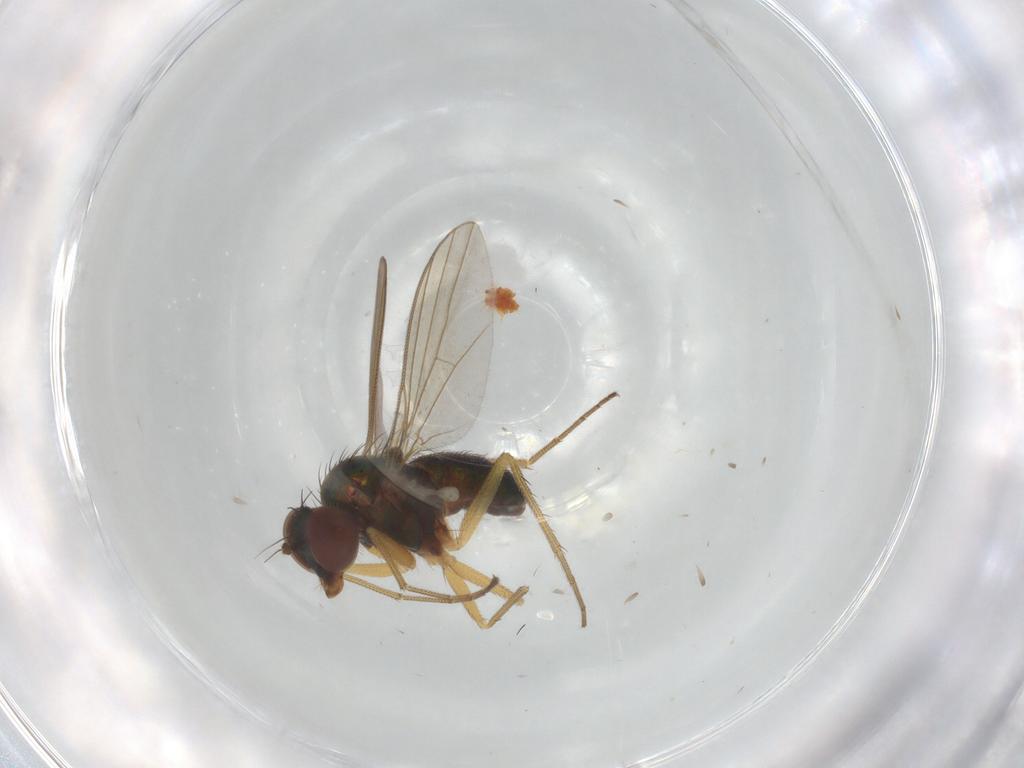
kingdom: Animalia
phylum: Arthropoda
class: Insecta
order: Diptera
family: Dolichopodidae
